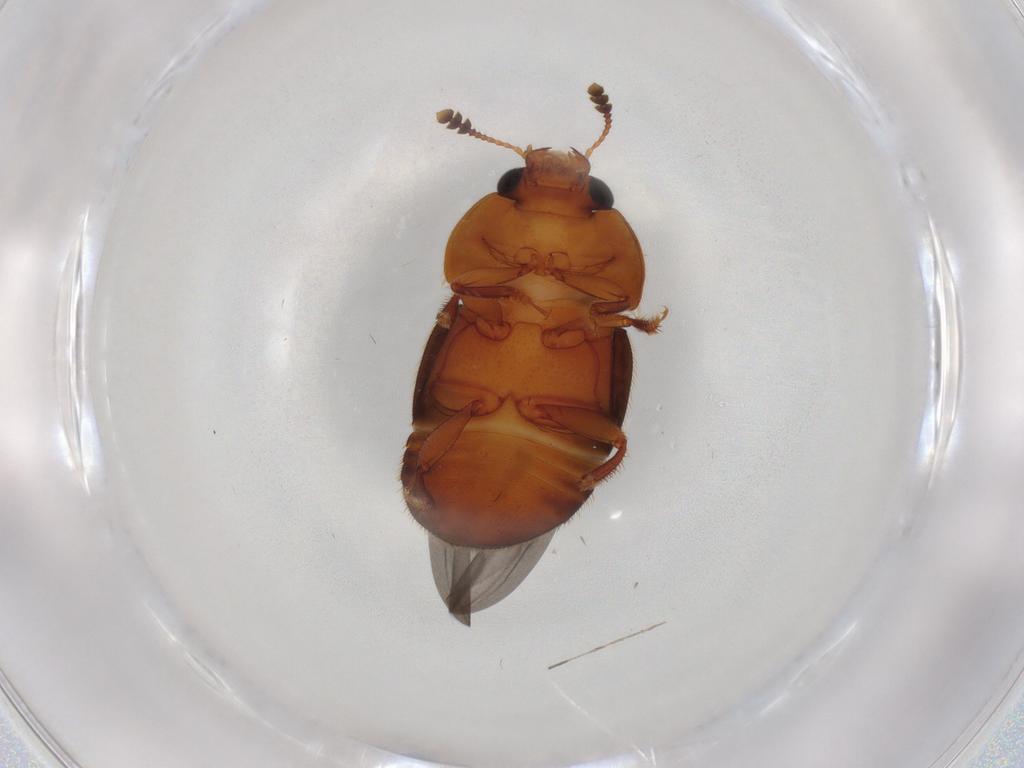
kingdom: Animalia
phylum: Arthropoda
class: Insecta
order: Coleoptera
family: Nitidulidae
